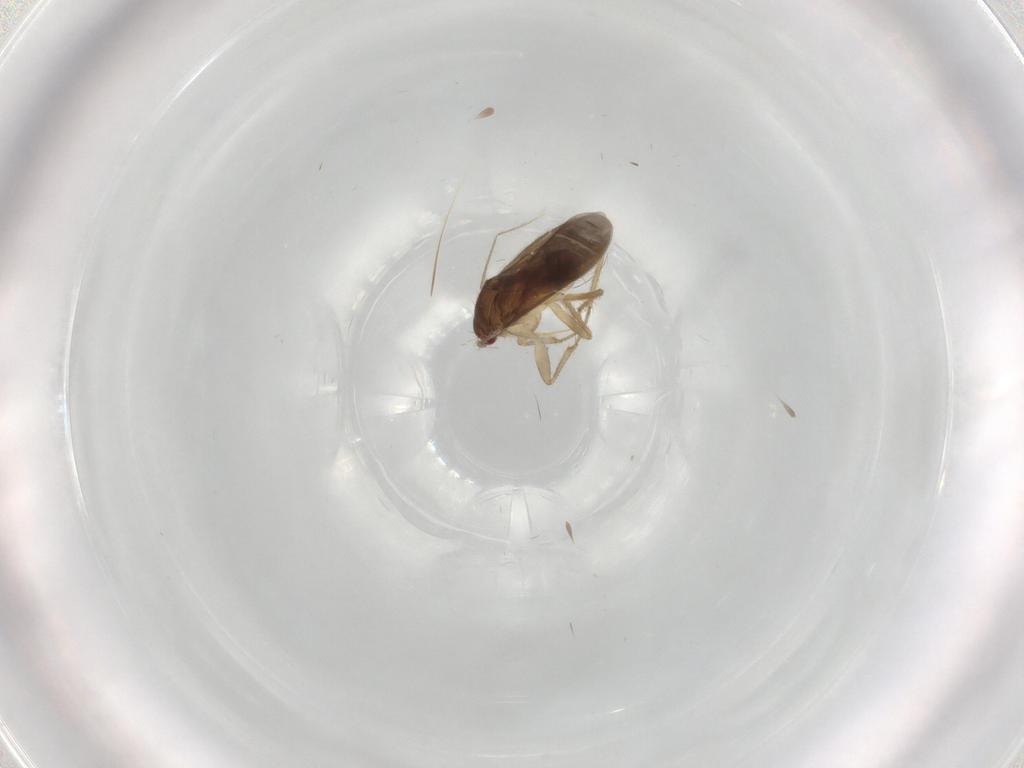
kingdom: Animalia
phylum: Arthropoda
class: Insecta
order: Hemiptera
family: Ceratocombidae
